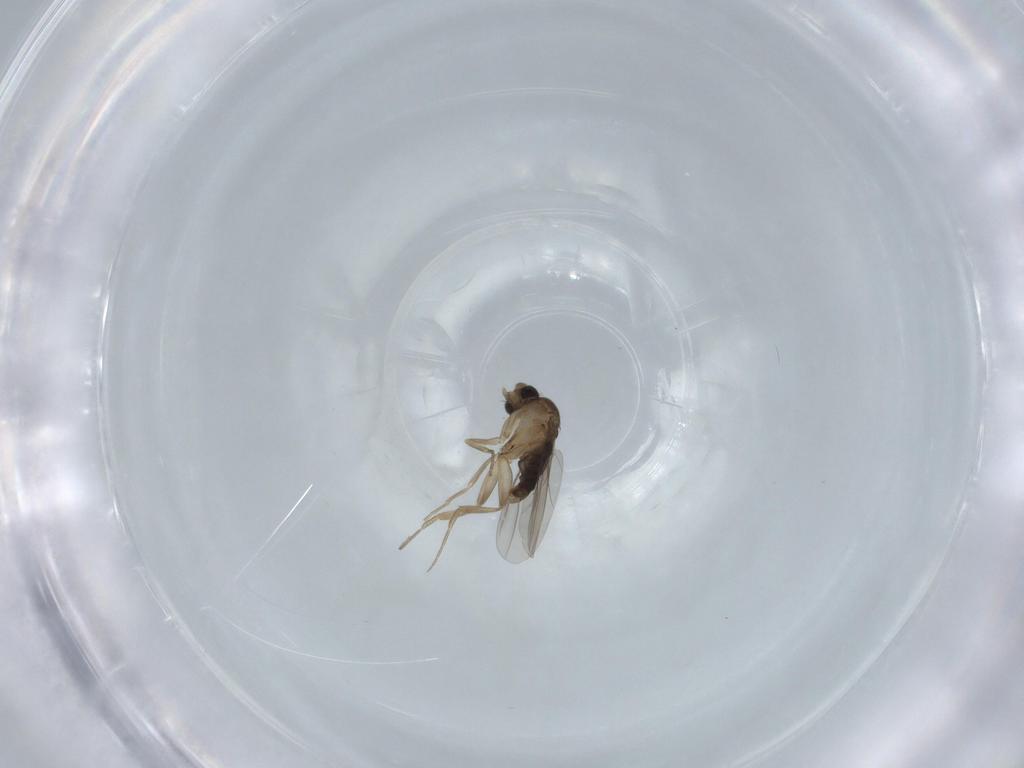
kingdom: Animalia
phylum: Arthropoda
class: Insecta
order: Diptera
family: Phoridae
